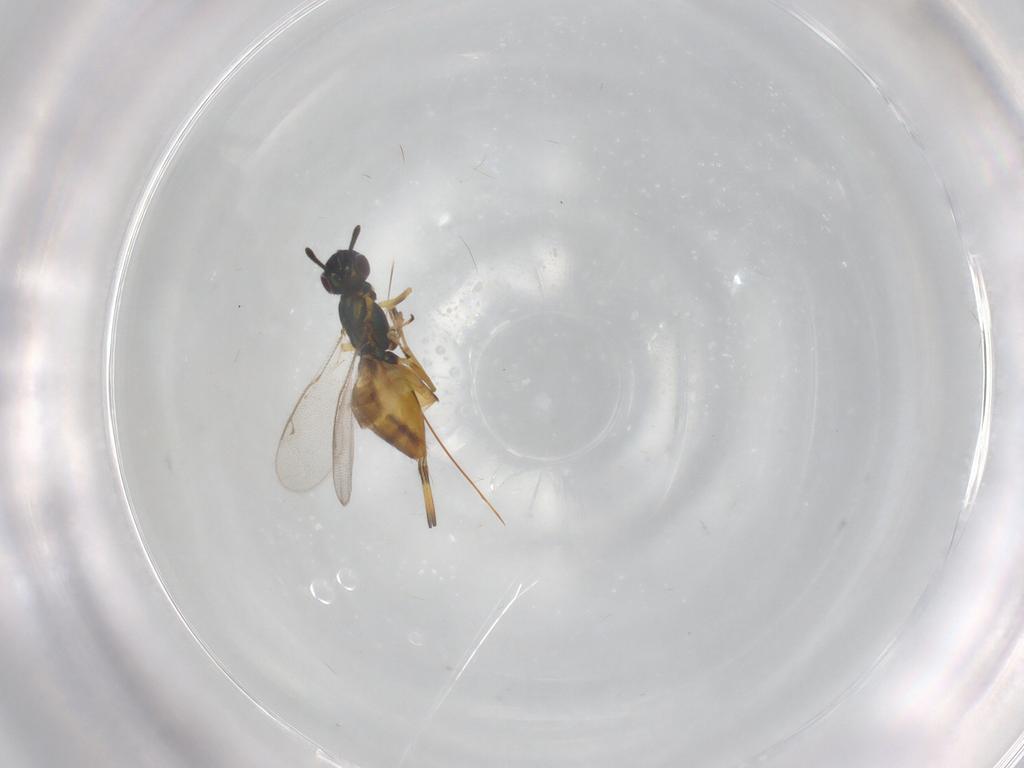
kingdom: Animalia
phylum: Arthropoda
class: Insecta
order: Hymenoptera
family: Eupelmidae
